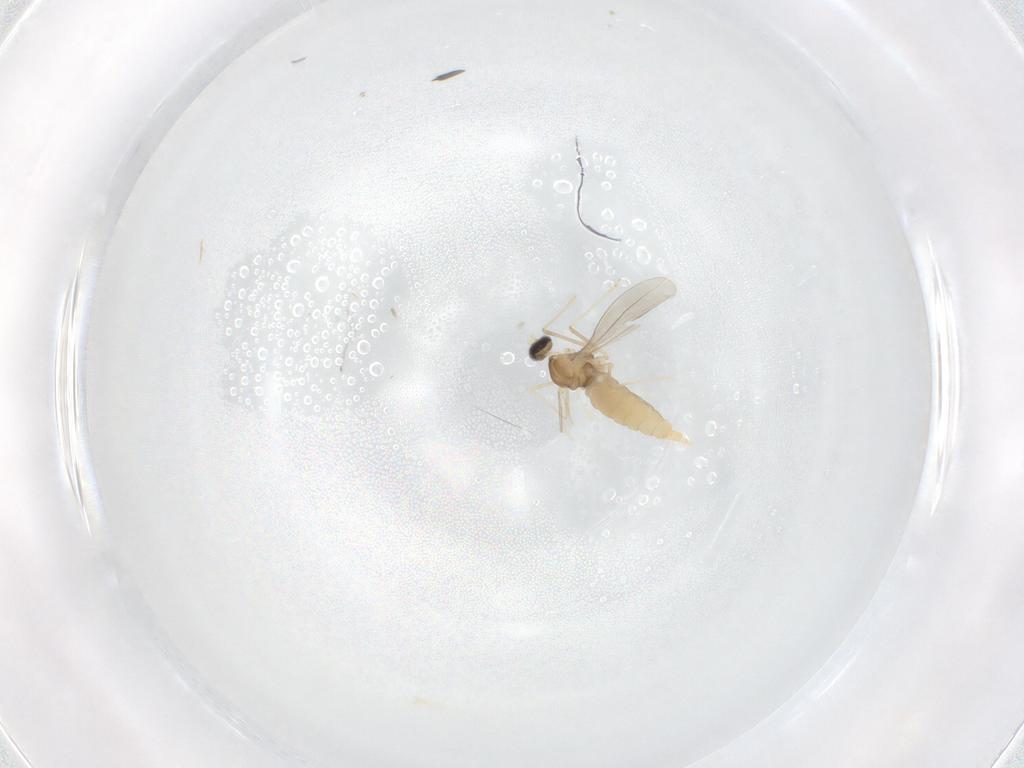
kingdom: Animalia
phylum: Arthropoda
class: Insecta
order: Diptera
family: Cecidomyiidae
